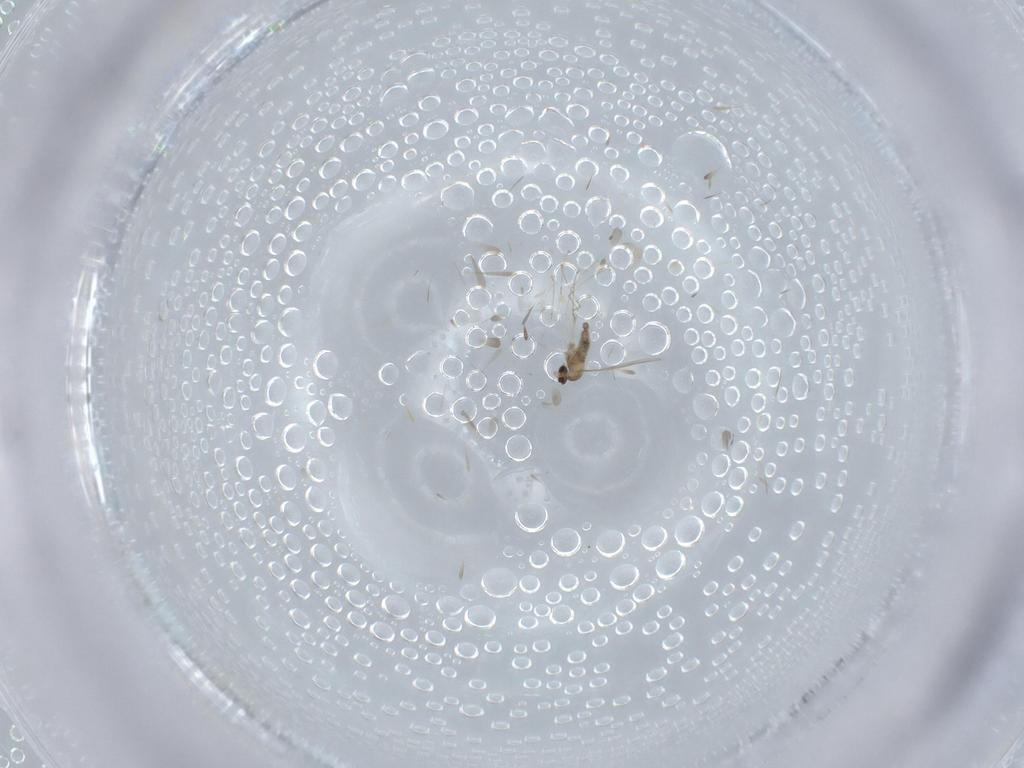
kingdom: Animalia
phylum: Arthropoda
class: Insecta
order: Diptera
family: Cecidomyiidae
